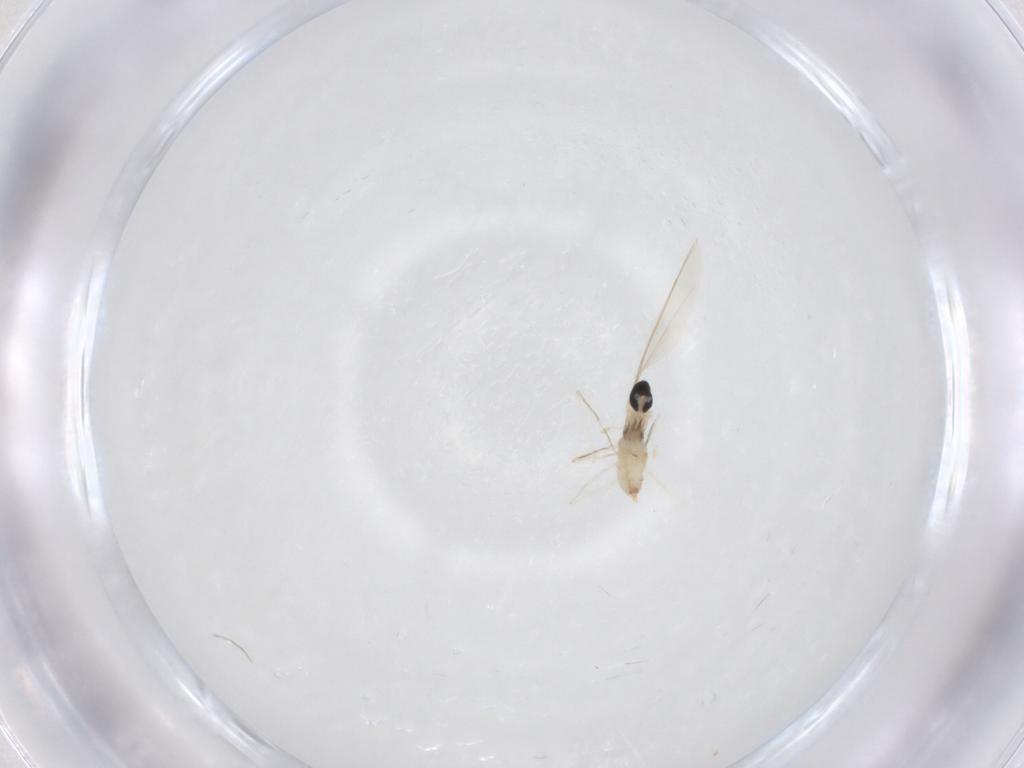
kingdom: Animalia
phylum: Arthropoda
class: Insecta
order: Diptera
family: Cecidomyiidae
